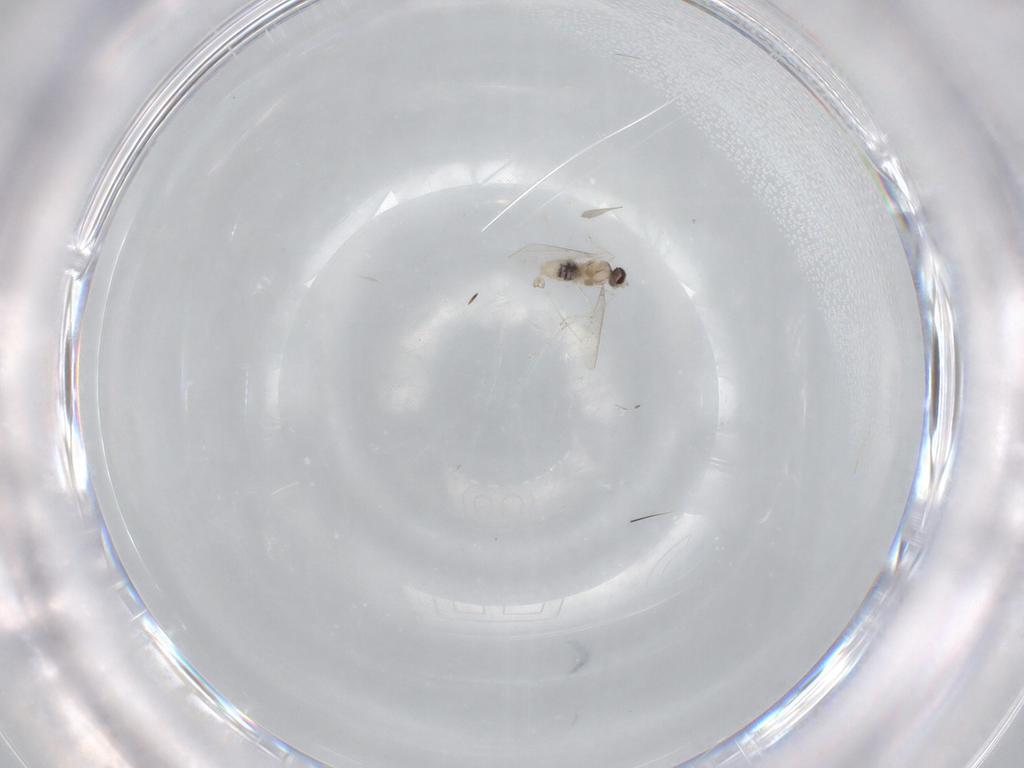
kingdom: Animalia
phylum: Arthropoda
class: Insecta
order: Diptera
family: Cecidomyiidae
